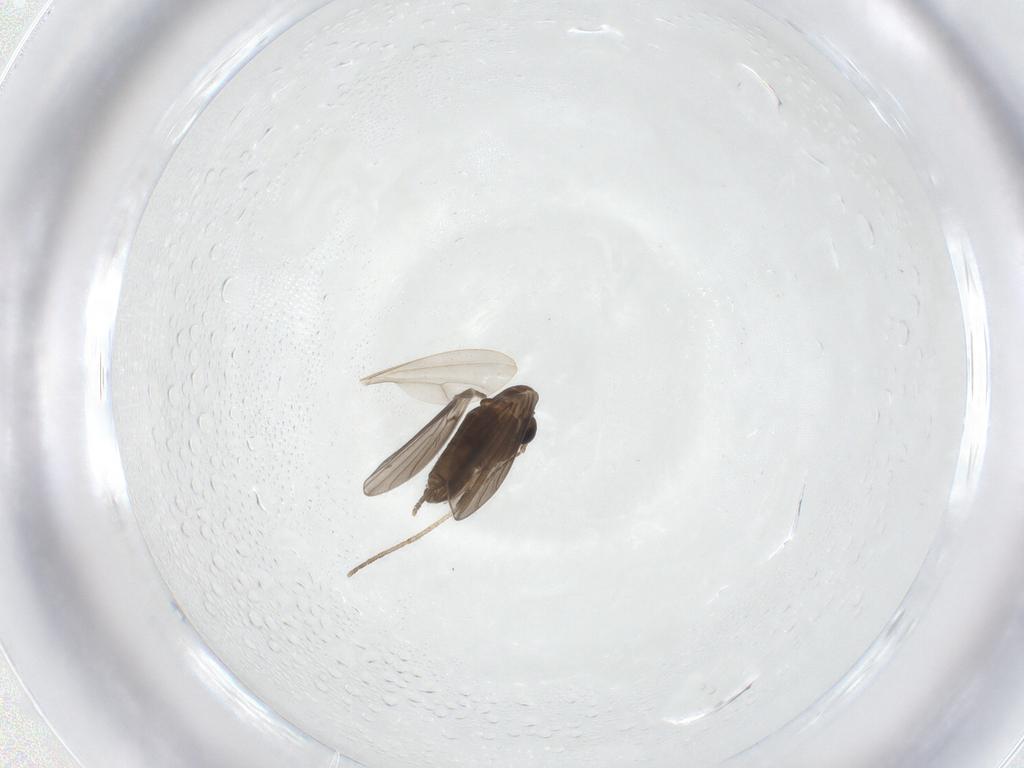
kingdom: Animalia
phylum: Arthropoda
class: Insecta
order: Diptera
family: Psychodidae
